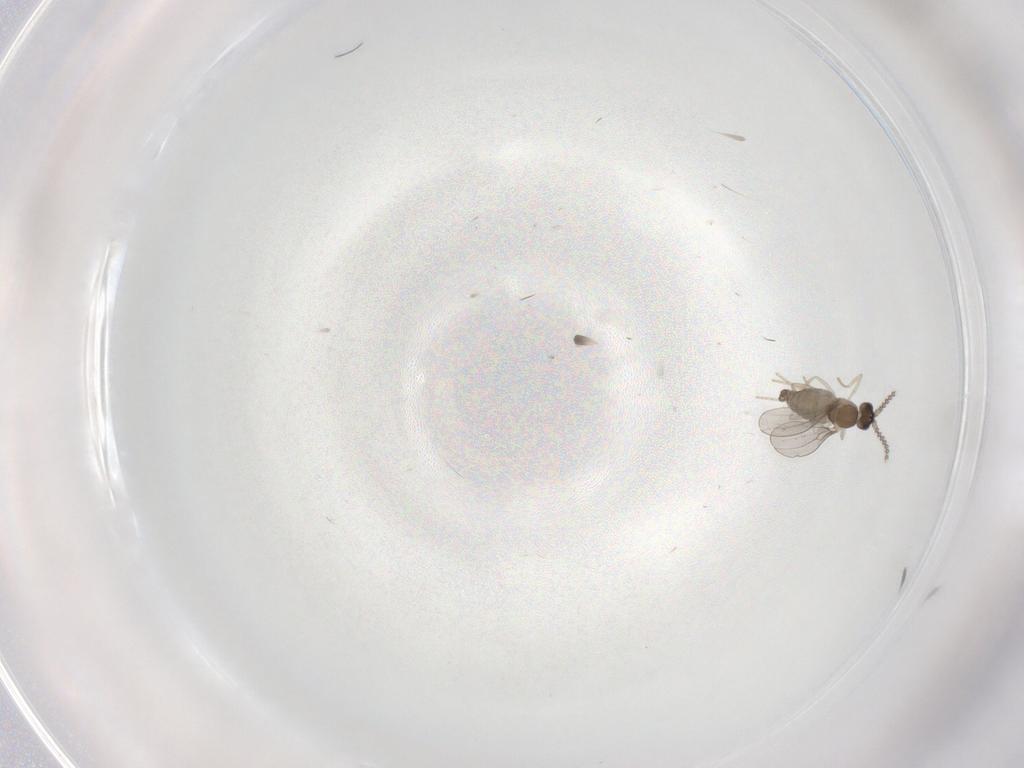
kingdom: Animalia
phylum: Arthropoda
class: Insecta
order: Diptera
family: Cecidomyiidae
